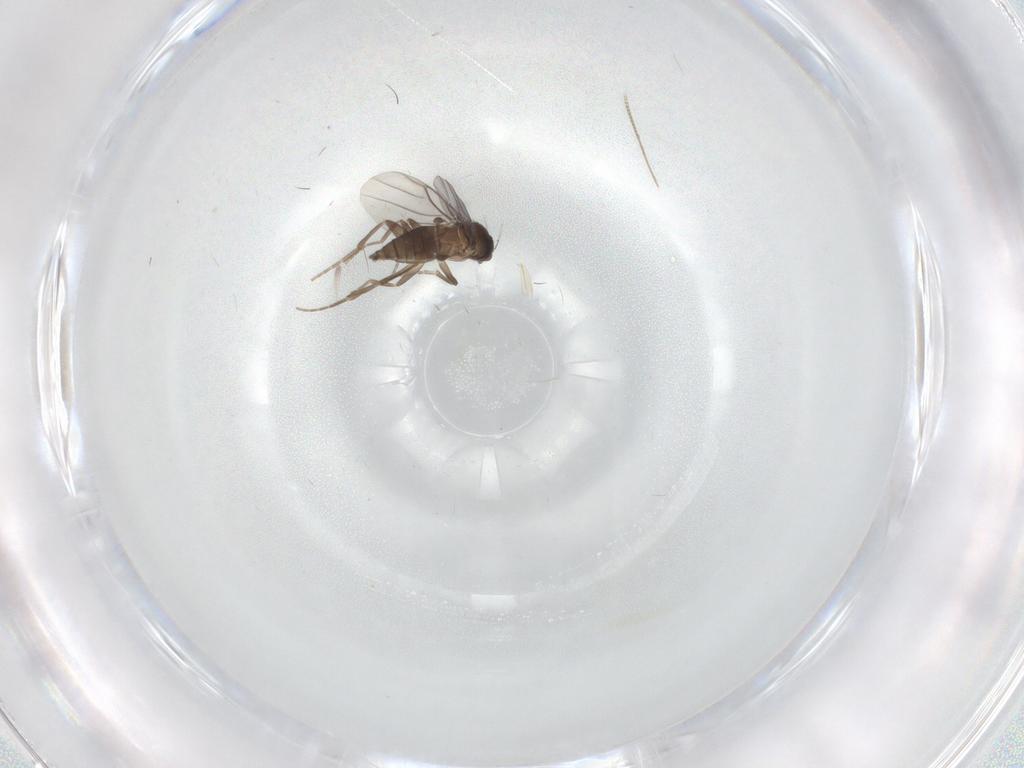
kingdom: Animalia
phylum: Arthropoda
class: Insecta
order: Diptera
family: Phoridae
